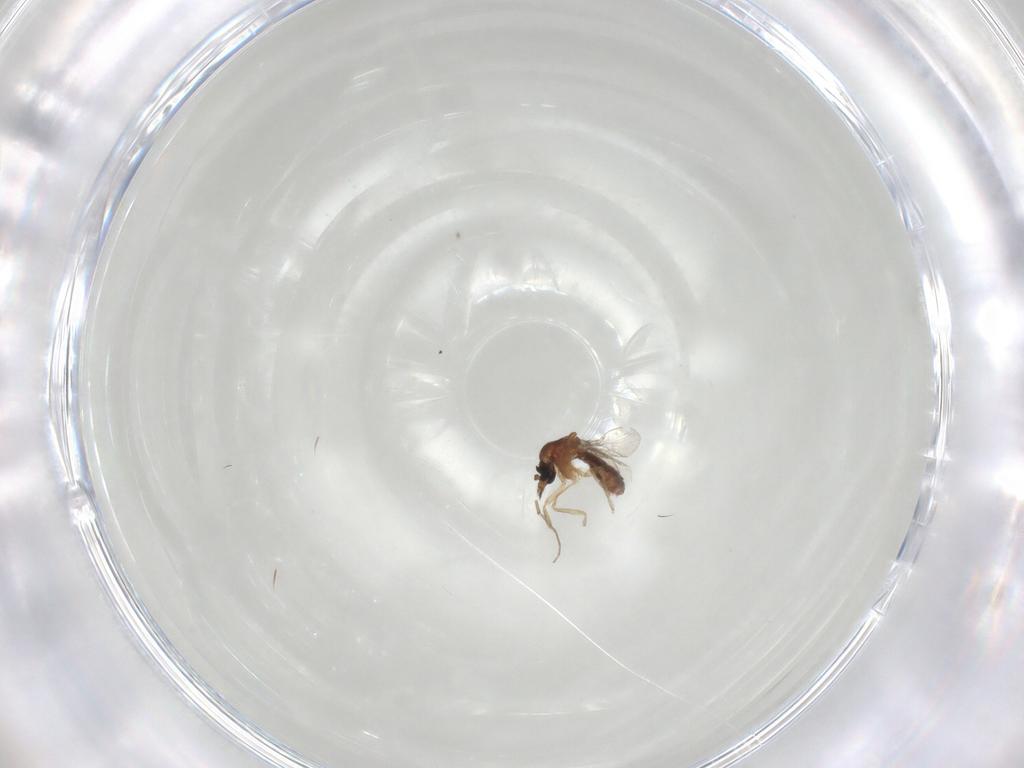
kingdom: Animalia
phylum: Arthropoda
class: Insecta
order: Diptera
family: Chironomidae
